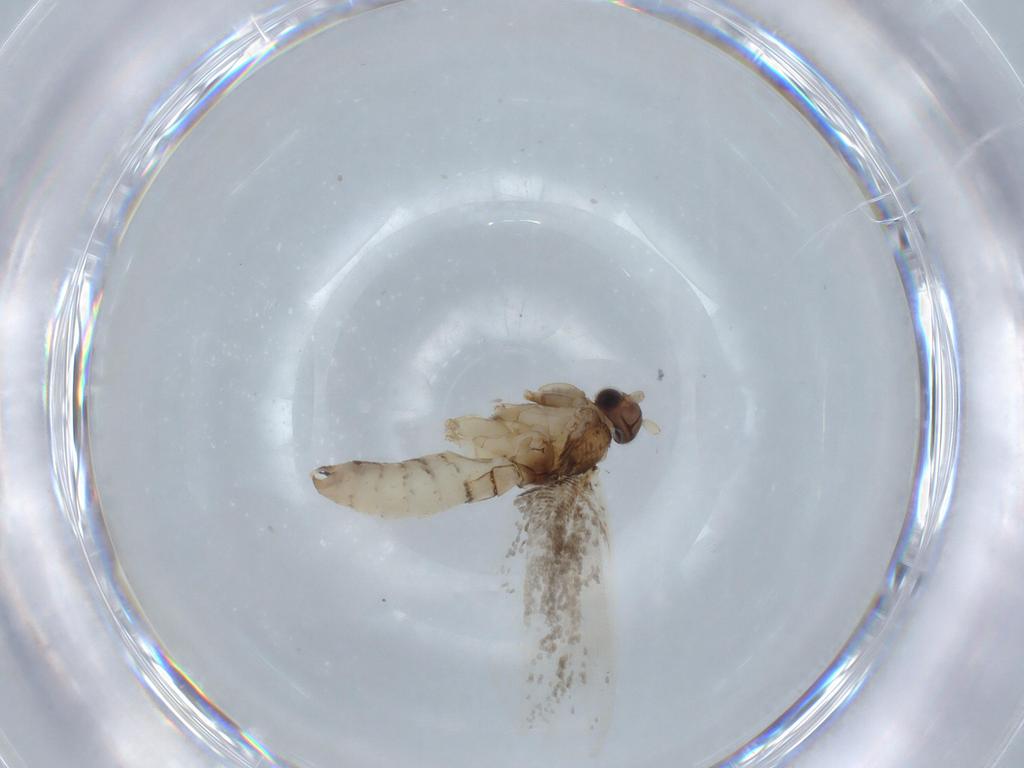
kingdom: Animalia
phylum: Arthropoda
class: Insecta
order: Lepidoptera
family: Tineidae
